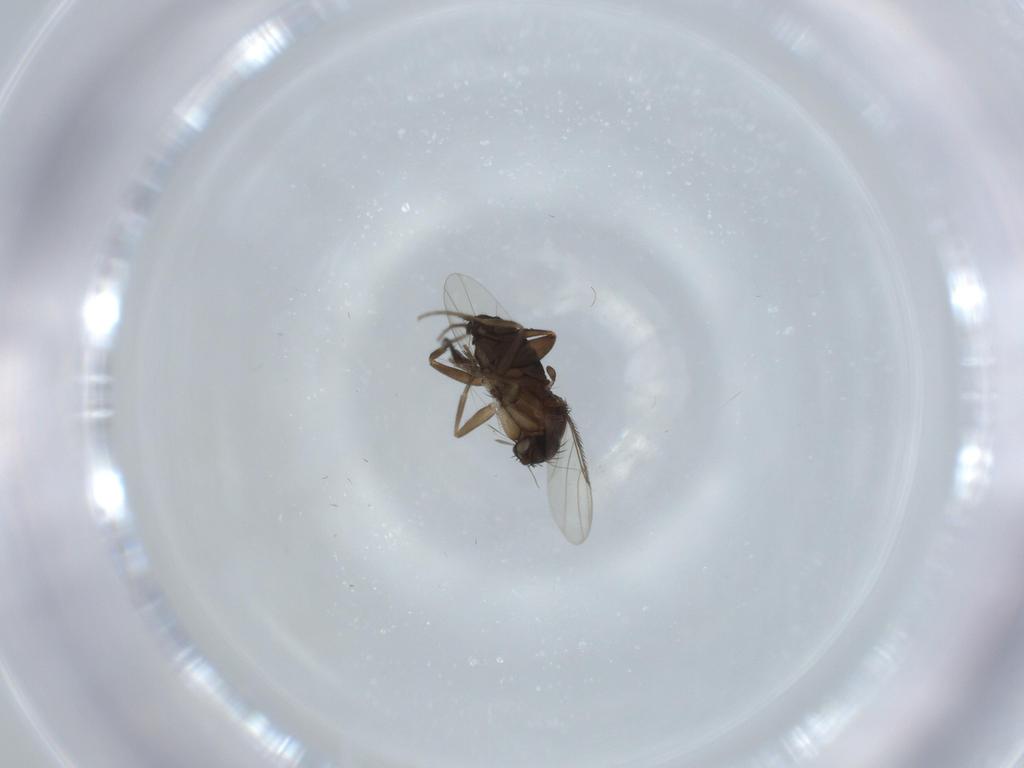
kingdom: Animalia
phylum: Arthropoda
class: Insecta
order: Diptera
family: Phoridae
